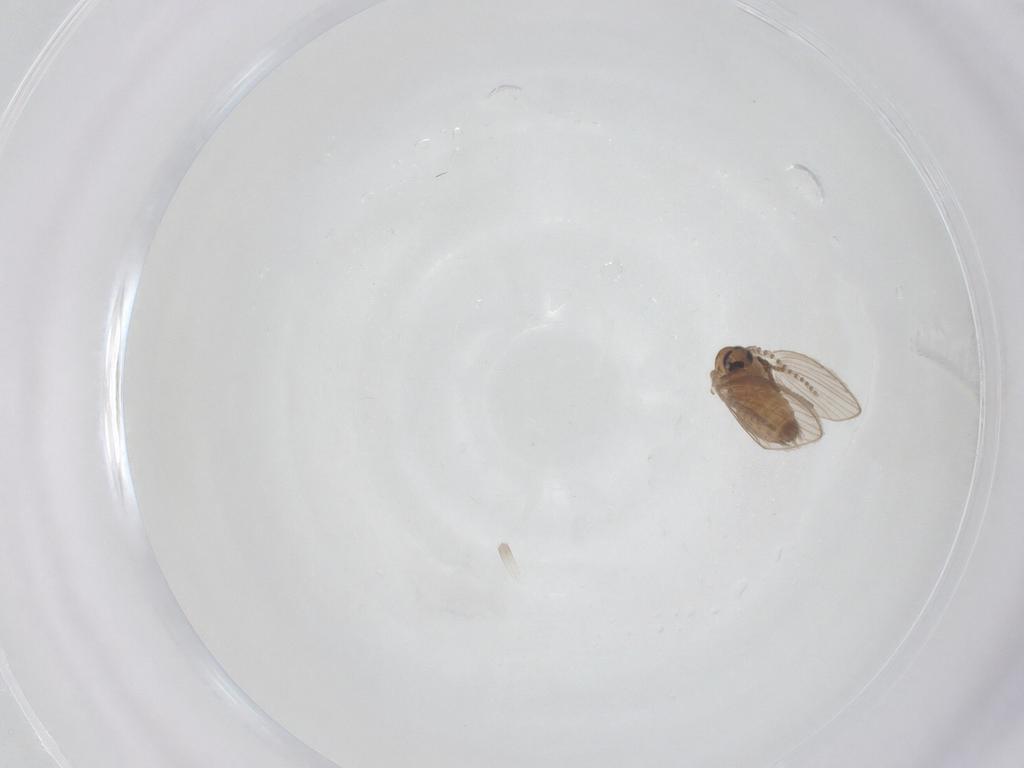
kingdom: Animalia
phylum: Arthropoda
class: Insecta
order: Diptera
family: Psychodidae
